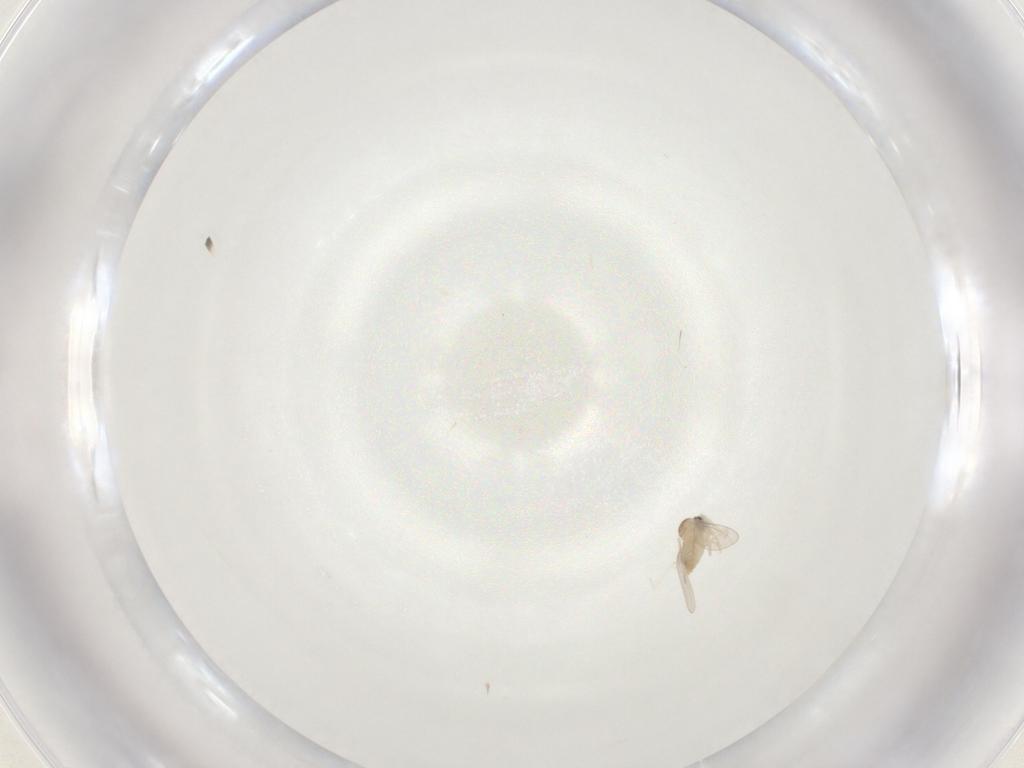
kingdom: Animalia
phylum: Arthropoda
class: Insecta
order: Diptera
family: Cecidomyiidae
